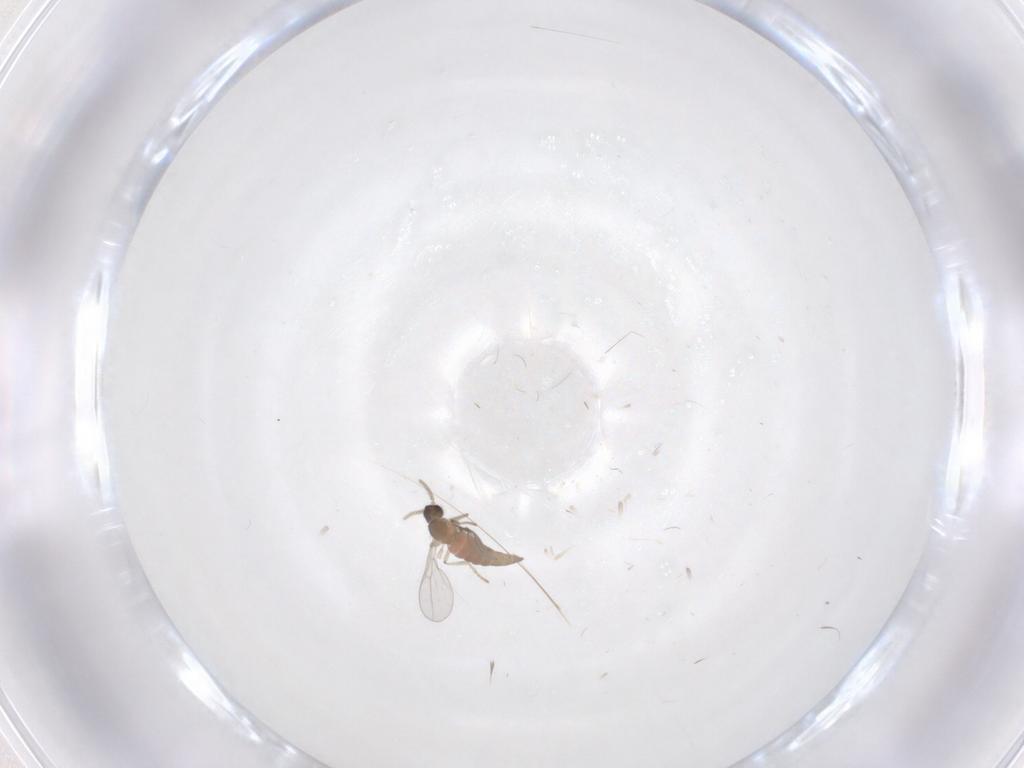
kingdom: Animalia
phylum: Arthropoda
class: Insecta
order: Diptera
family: Cecidomyiidae
